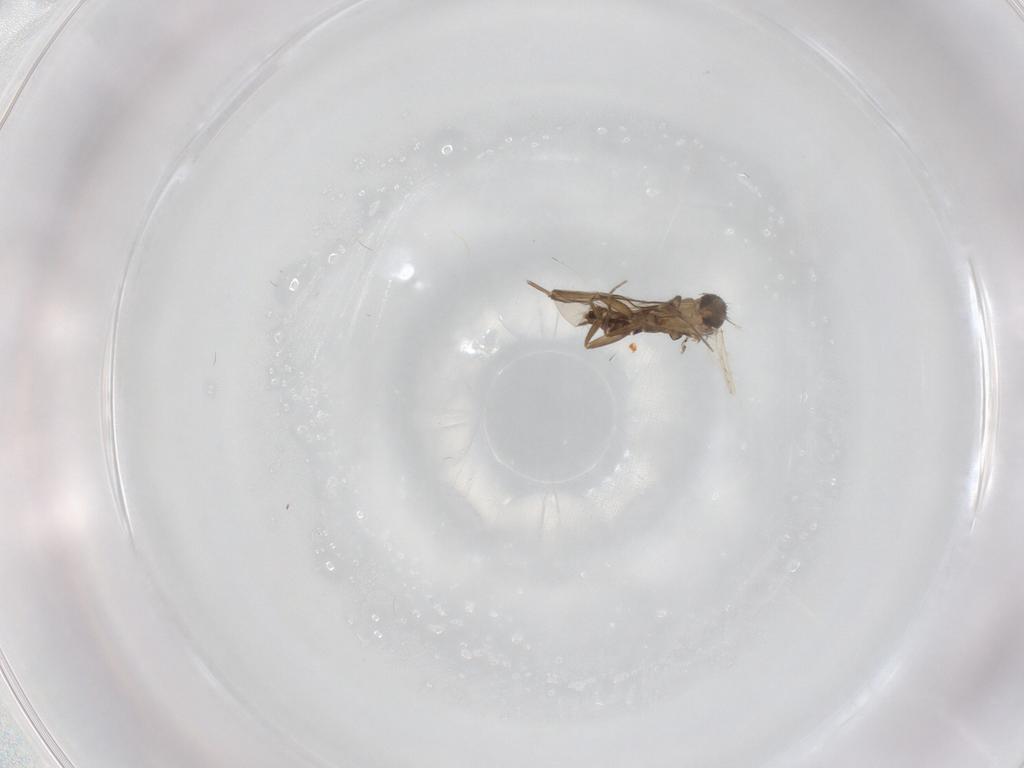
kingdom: Animalia
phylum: Arthropoda
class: Insecta
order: Diptera
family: Phoridae
